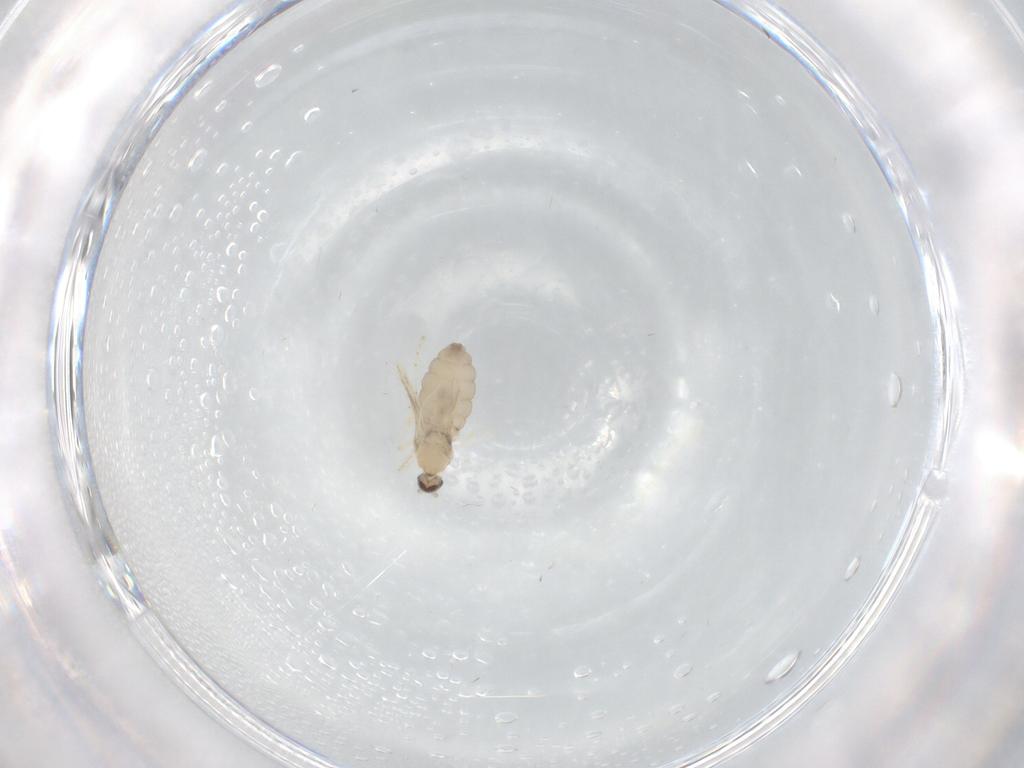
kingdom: Animalia
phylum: Arthropoda
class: Insecta
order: Diptera
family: Cecidomyiidae
